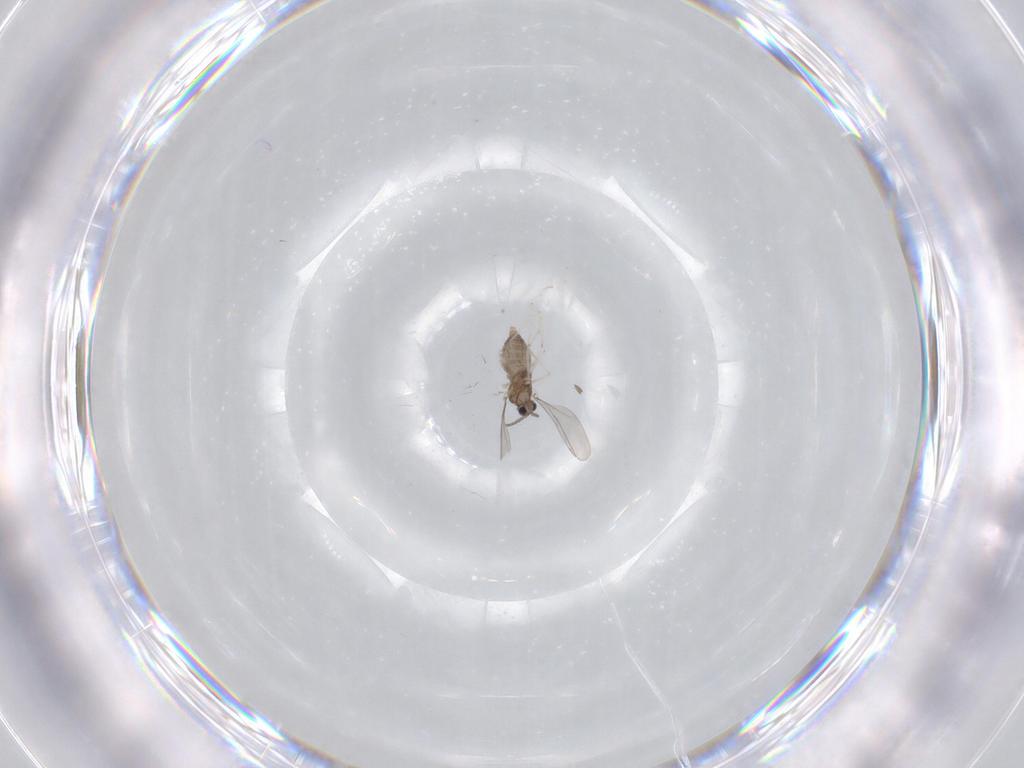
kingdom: Animalia
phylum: Arthropoda
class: Insecta
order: Diptera
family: Cecidomyiidae
